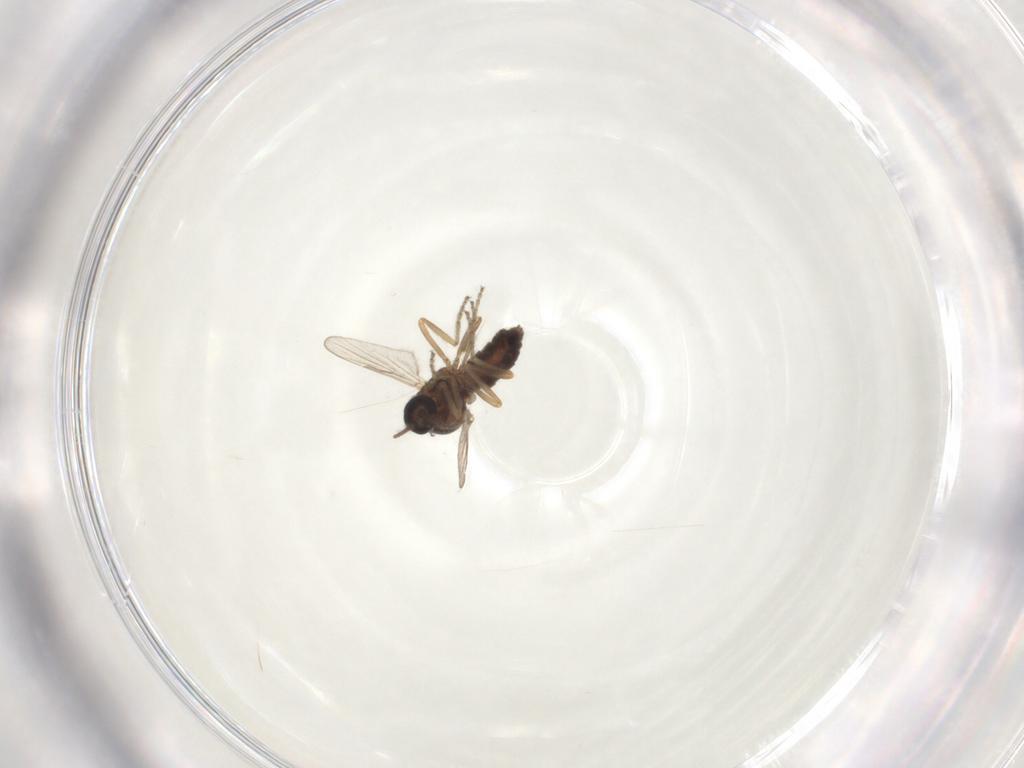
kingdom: Animalia
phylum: Arthropoda
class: Insecta
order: Diptera
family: Ceratopogonidae
